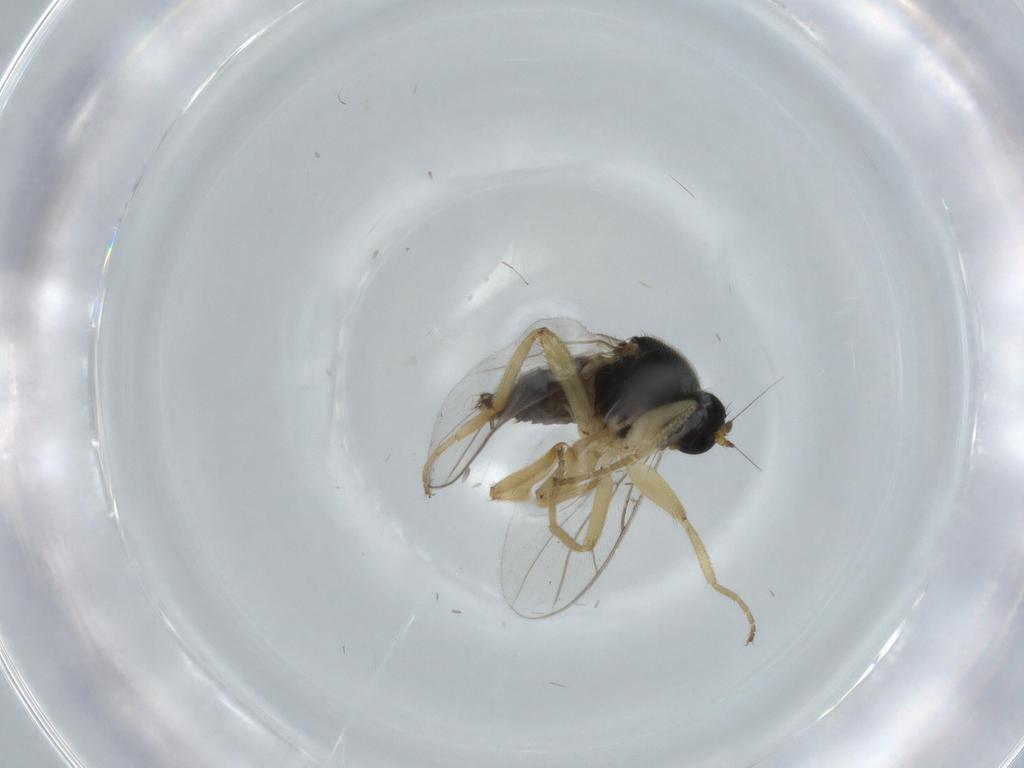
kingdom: Animalia
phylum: Arthropoda
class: Insecta
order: Diptera
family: Hybotidae
